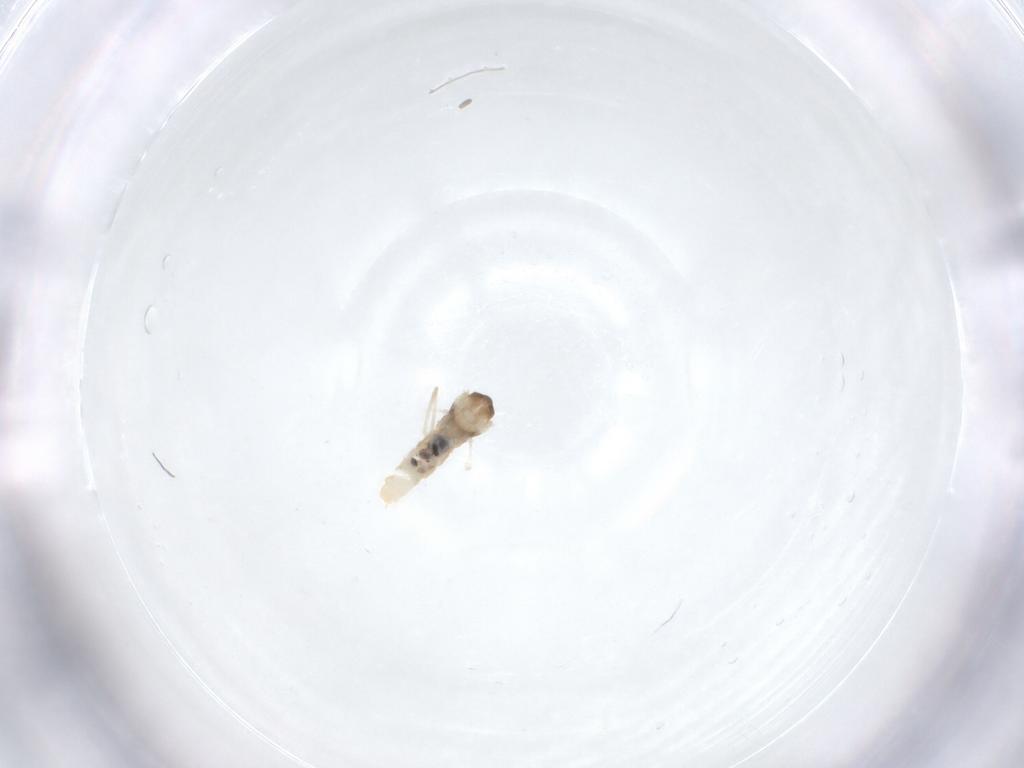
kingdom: Animalia
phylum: Arthropoda
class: Insecta
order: Diptera
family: Cecidomyiidae
